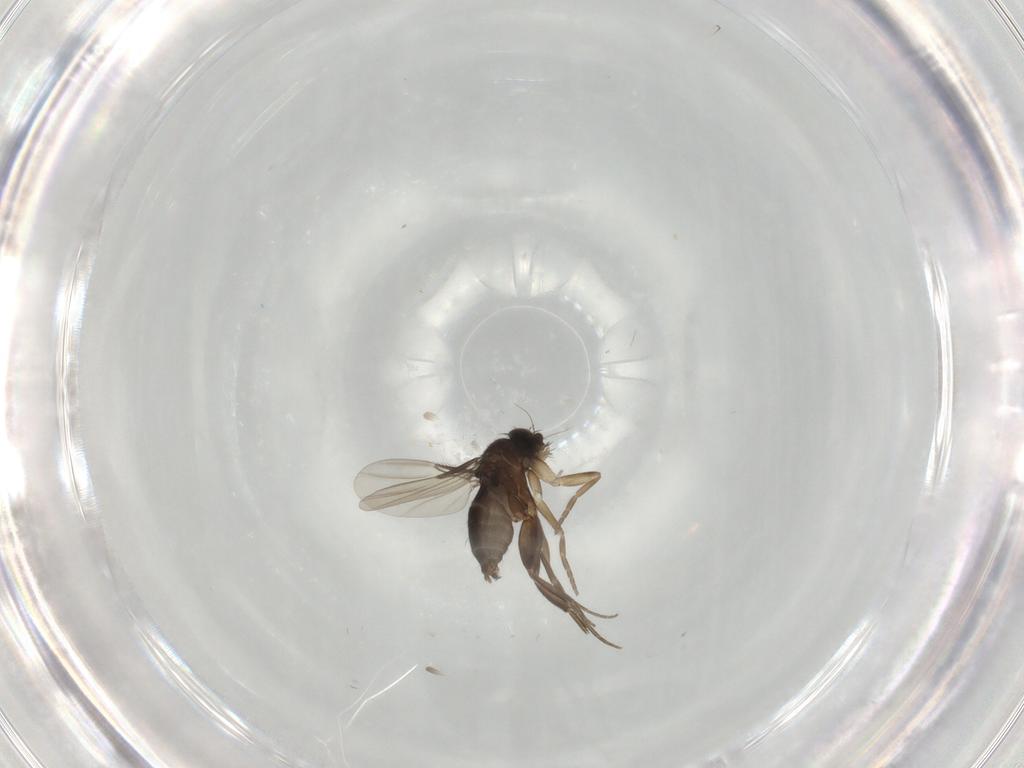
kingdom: Animalia
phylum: Arthropoda
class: Insecta
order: Diptera
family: Phoridae
